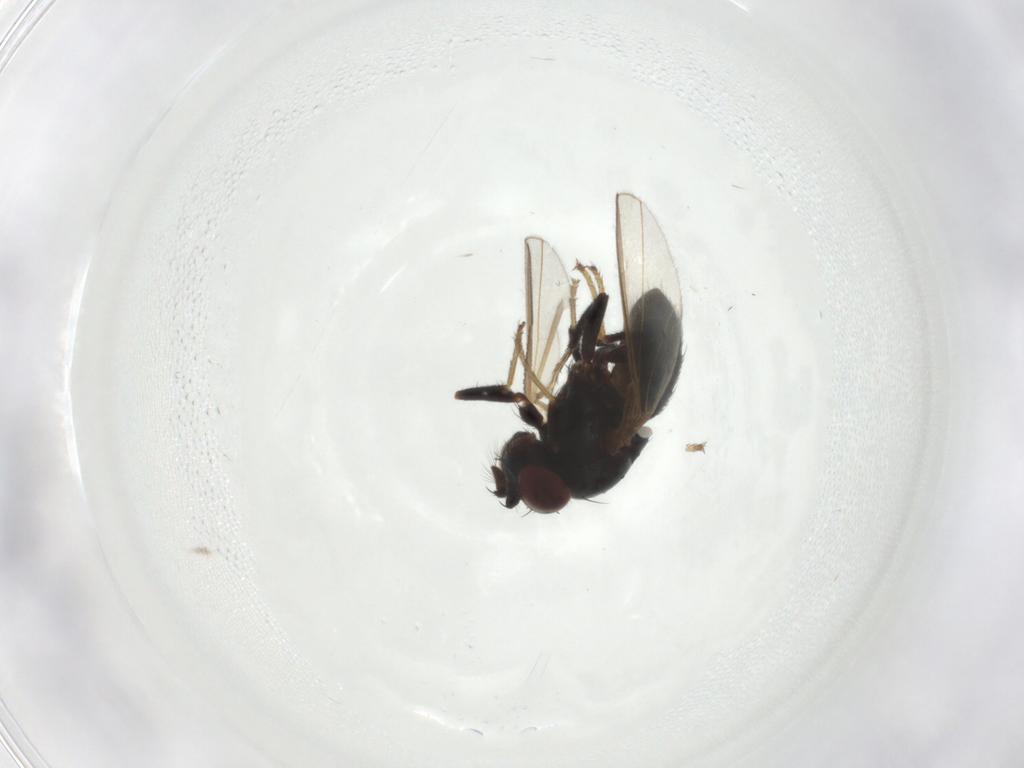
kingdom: Animalia
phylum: Arthropoda
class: Insecta
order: Diptera
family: Ephydridae
